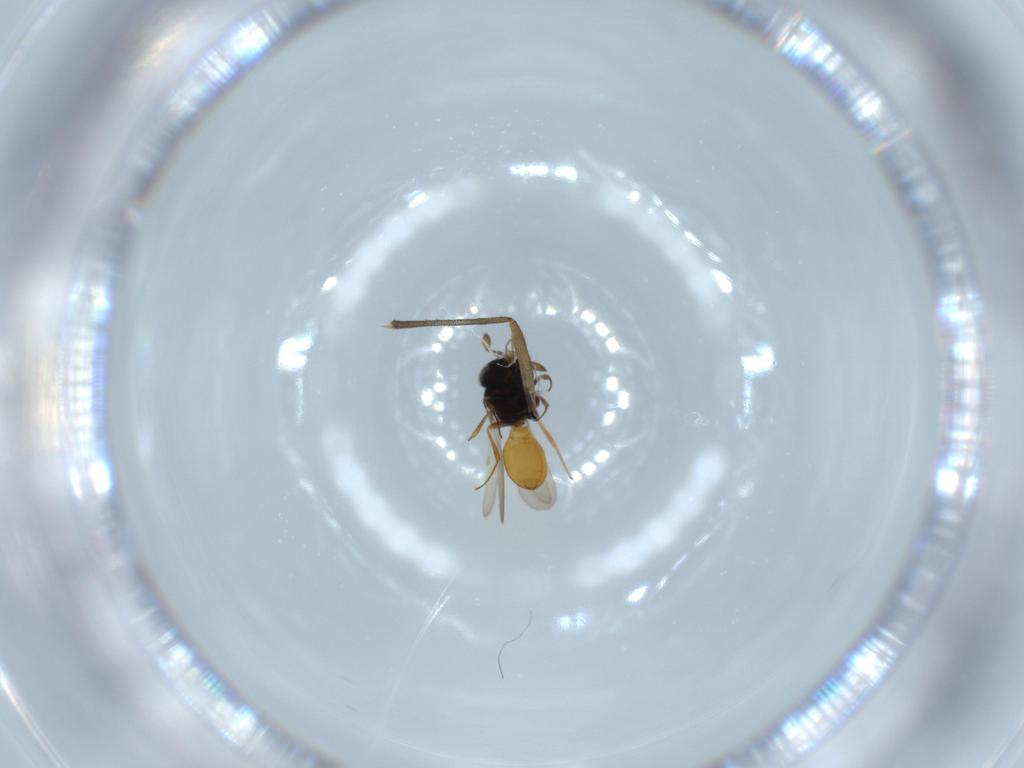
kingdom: Animalia
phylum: Arthropoda
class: Insecta
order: Hymenoptera
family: Scelionidae
